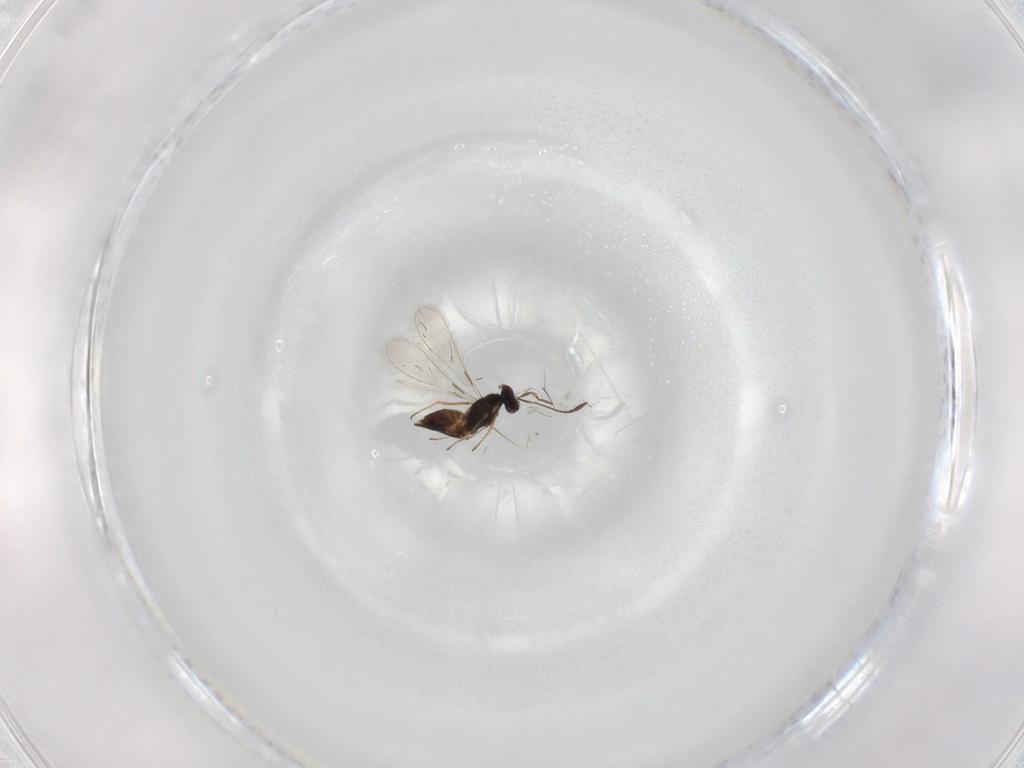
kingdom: Animalia
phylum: Arthropoda
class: Insecta
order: Hymenoptera
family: Mymaridae
